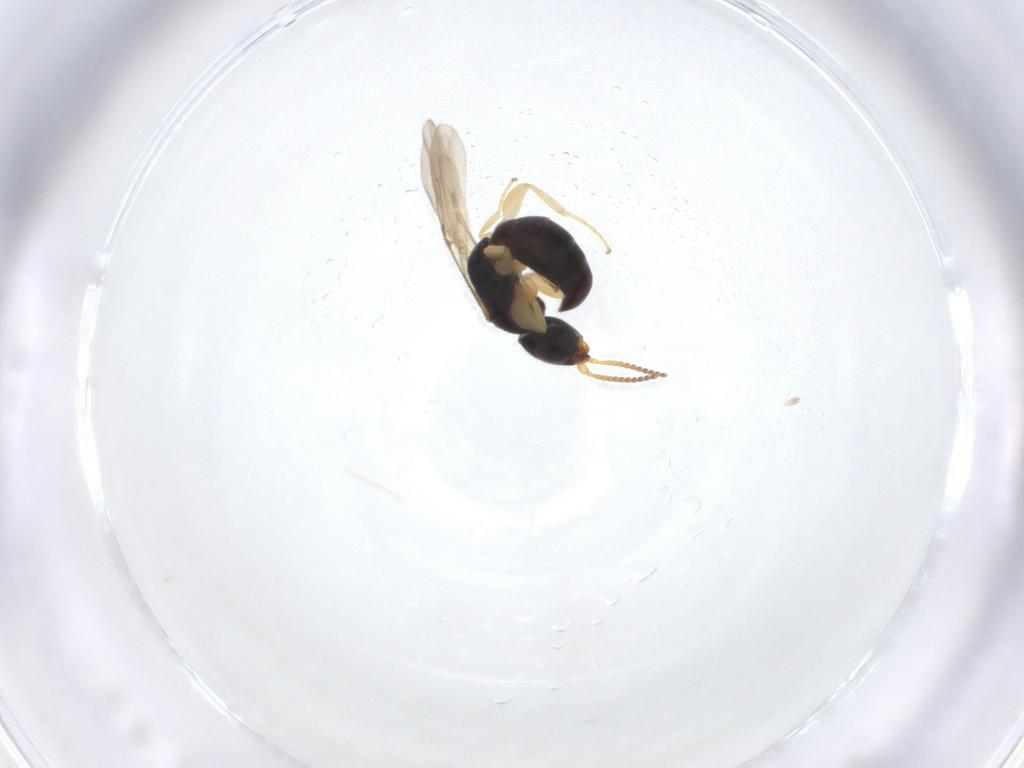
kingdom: Animalia
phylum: Arthropoda
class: Insecta
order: Hymenoptera
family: Bethylidae
